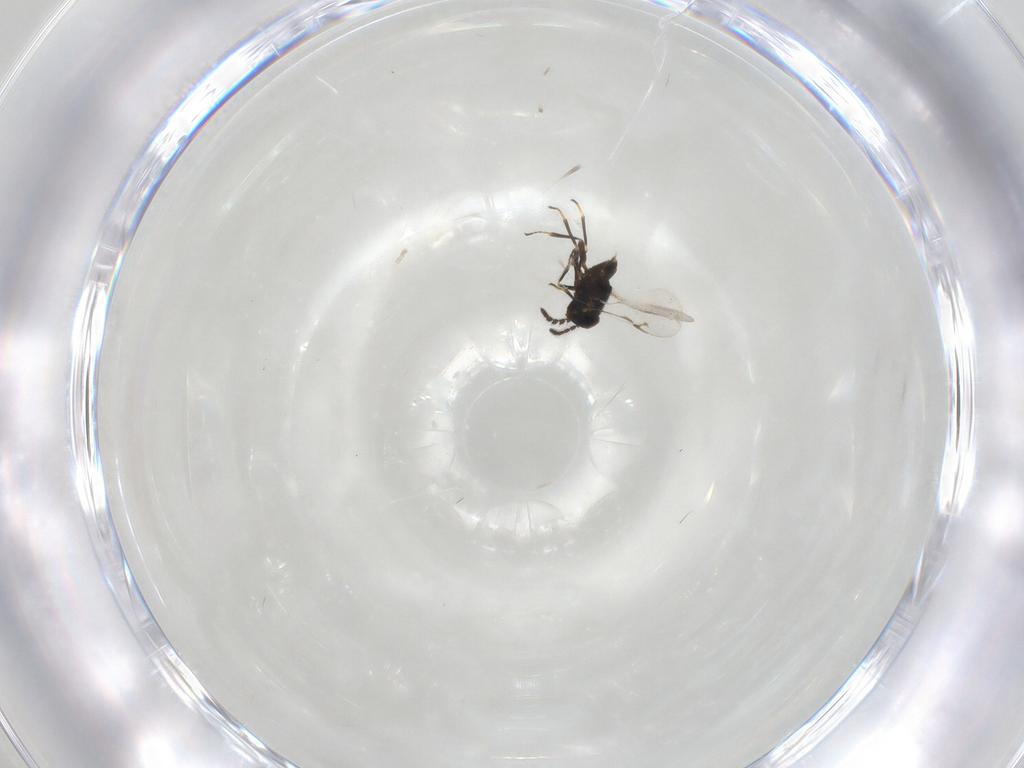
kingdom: Animalia
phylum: Arthropoda
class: Insecta
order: Hymenoptera
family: Encyrtidae
